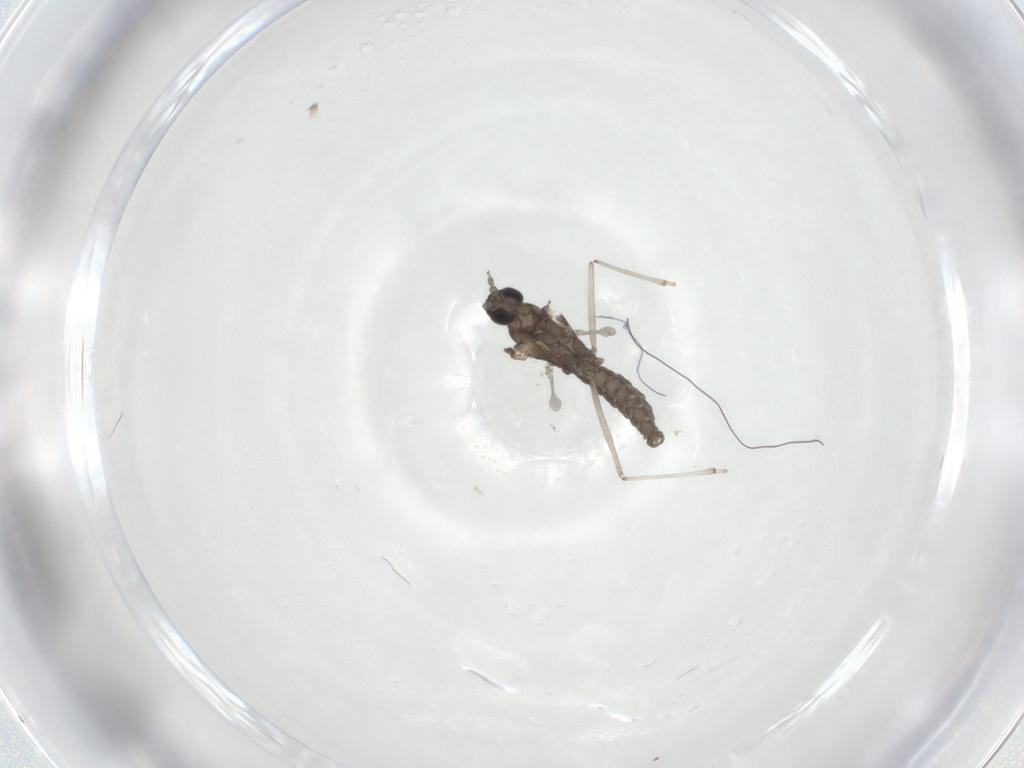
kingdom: Animalia
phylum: Arthropoda
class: Insecta
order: Diptera
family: Cecidomyiidae
